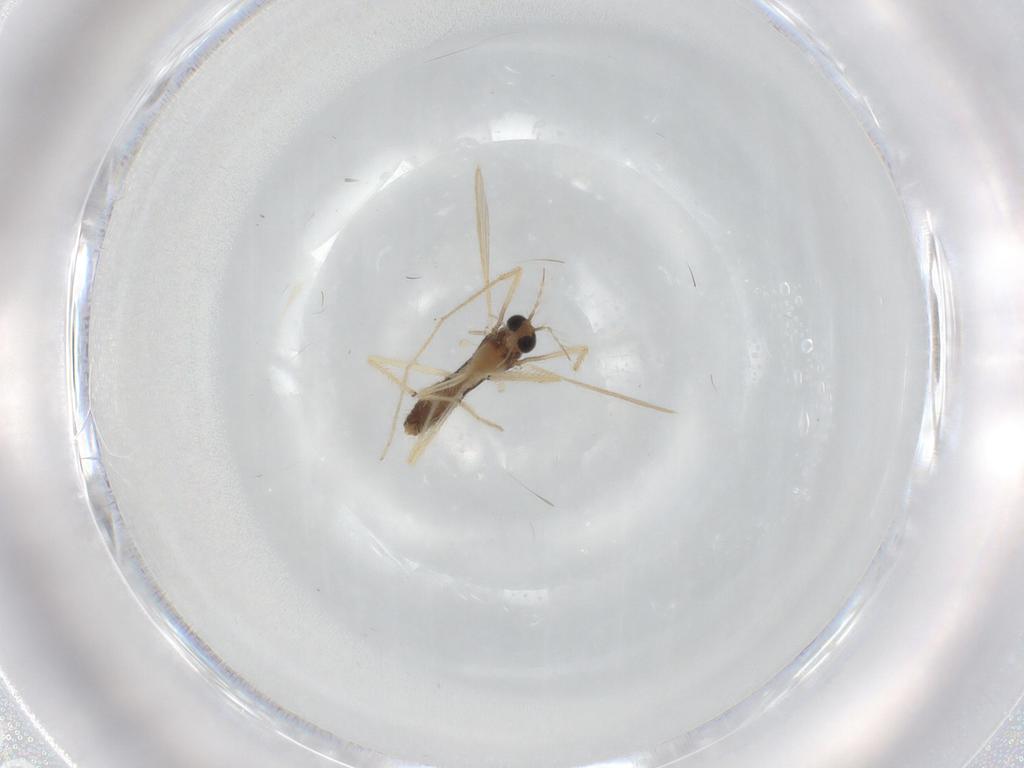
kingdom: Animalia
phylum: Arthropoda
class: Insecta
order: Diptera
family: Chironomidae
